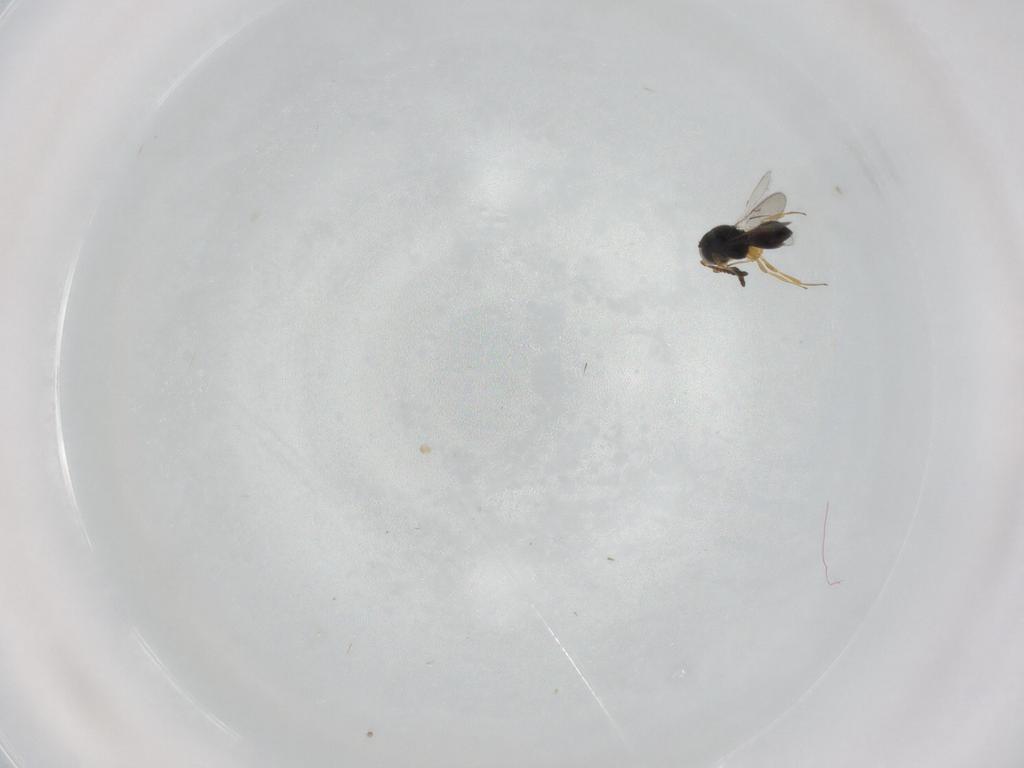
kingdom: Animalia
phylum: Arthropoda
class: Insecta
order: Hymenoptera
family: Scelionidae
